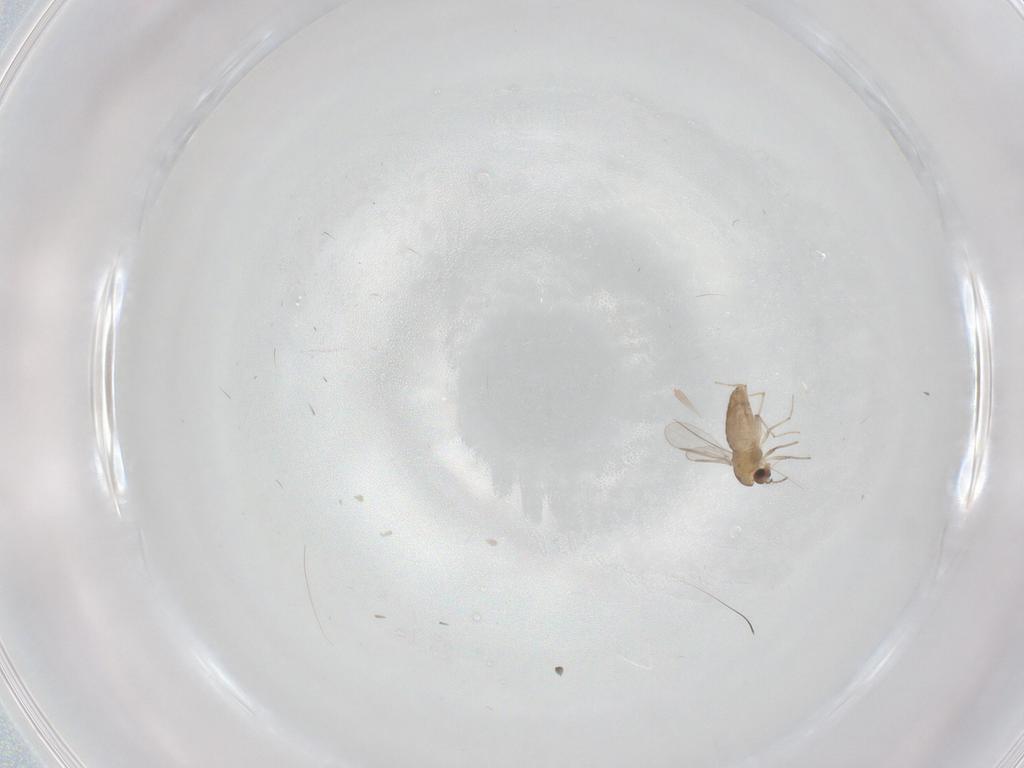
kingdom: Animalia
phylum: Arthropoda
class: Insecta
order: Diptera
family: Chironomidae
